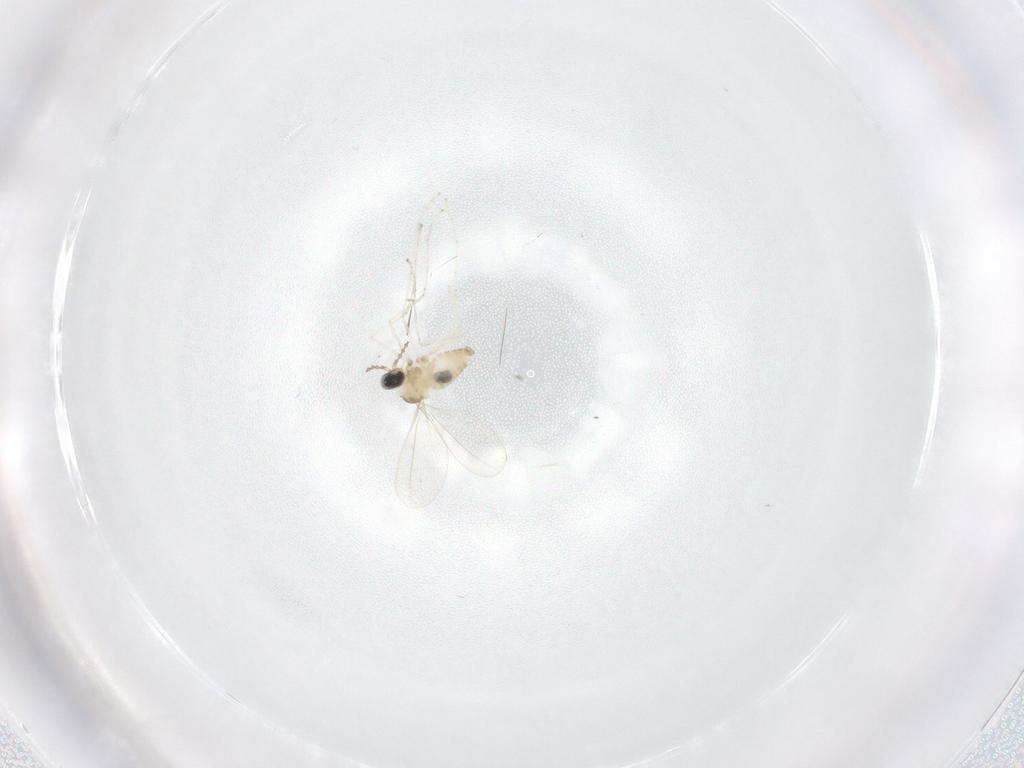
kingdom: Animalia
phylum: Arthropoda
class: Insecta
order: Diptera
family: Cecidomyiidae
